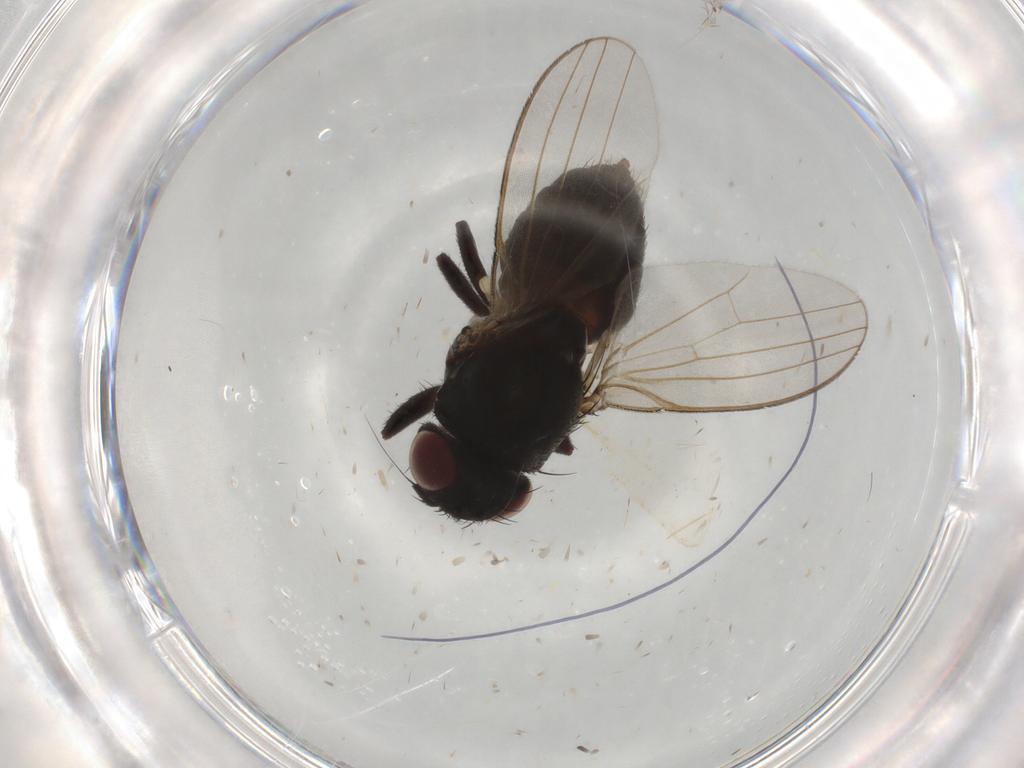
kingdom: Animalia
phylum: Arthropoda
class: Insecta
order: Diptera
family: Milichiidae
